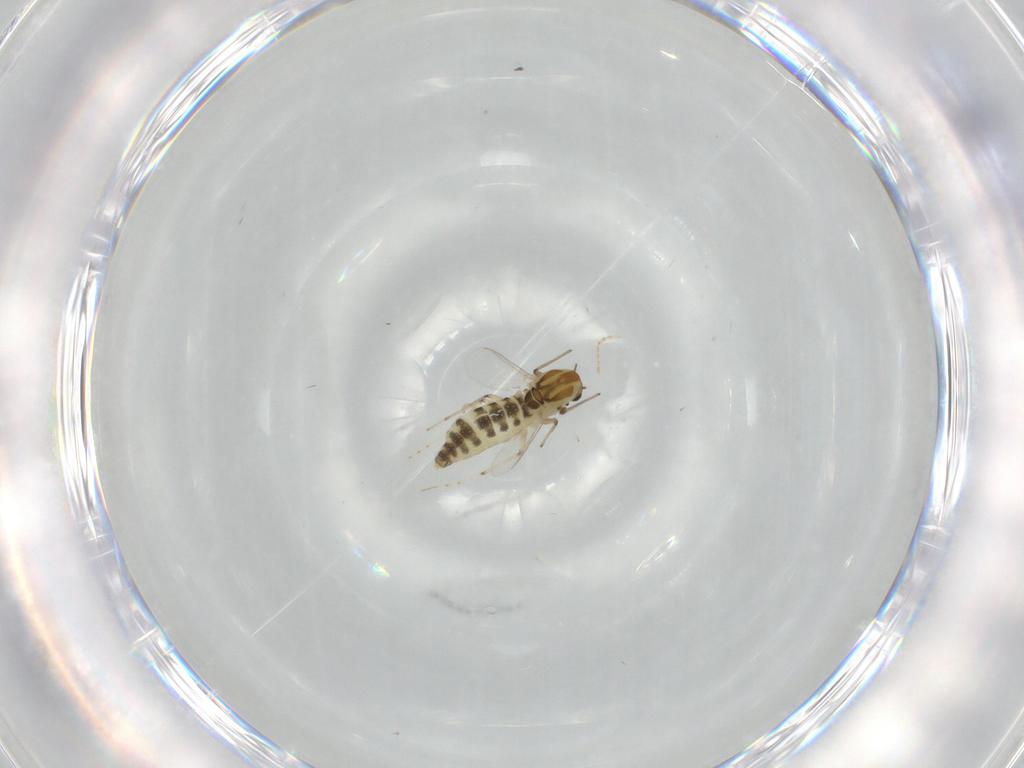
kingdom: Animalia
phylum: Arthropoda
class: Insecta
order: Diptera
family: Chironomidae
